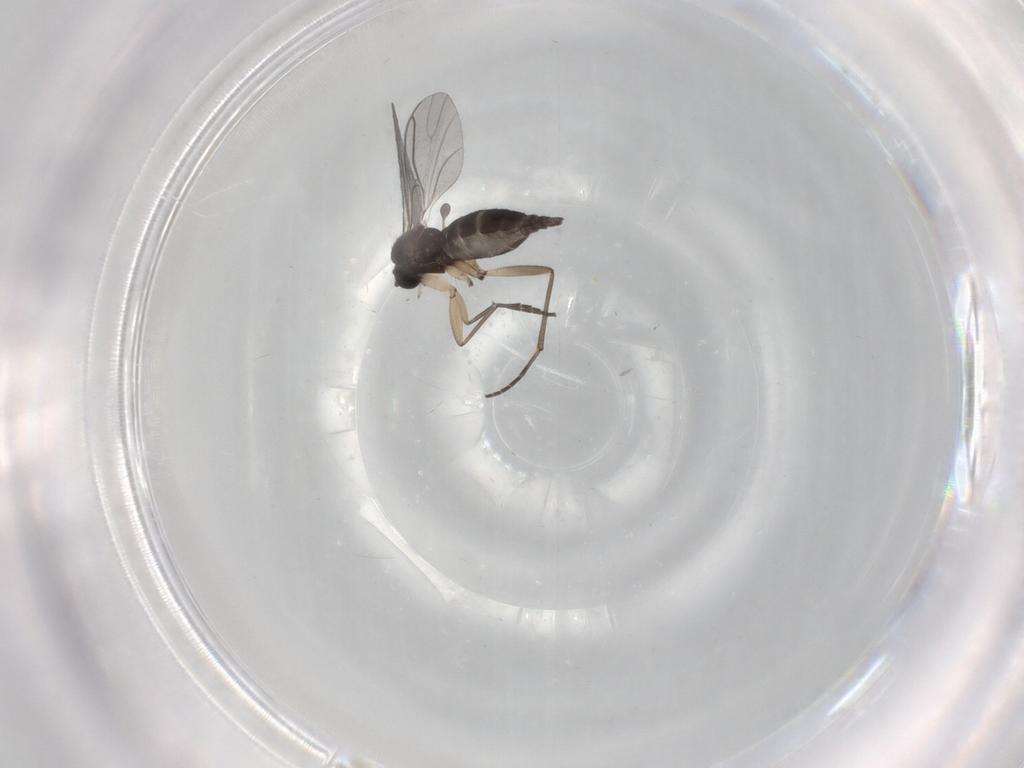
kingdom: Animalia
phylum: Arthropoda
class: Insecta
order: Diptera
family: Sciaridae
